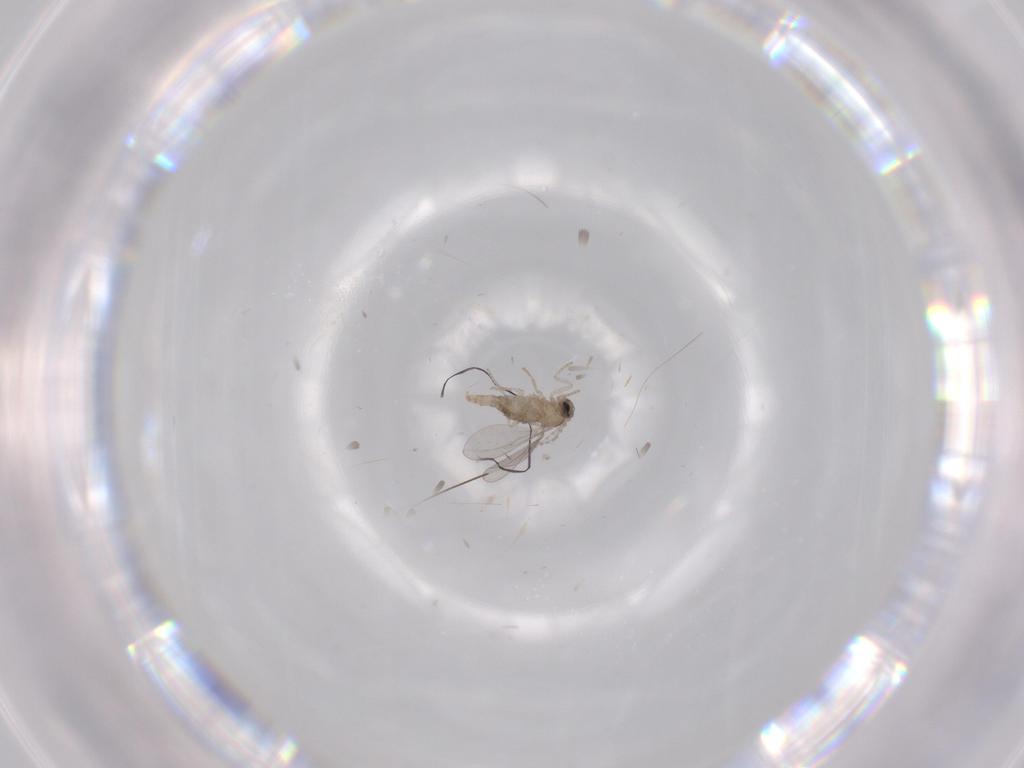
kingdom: Animalia
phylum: Arthropoda
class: Insecta
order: Diptera
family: Cecidomyiidae
